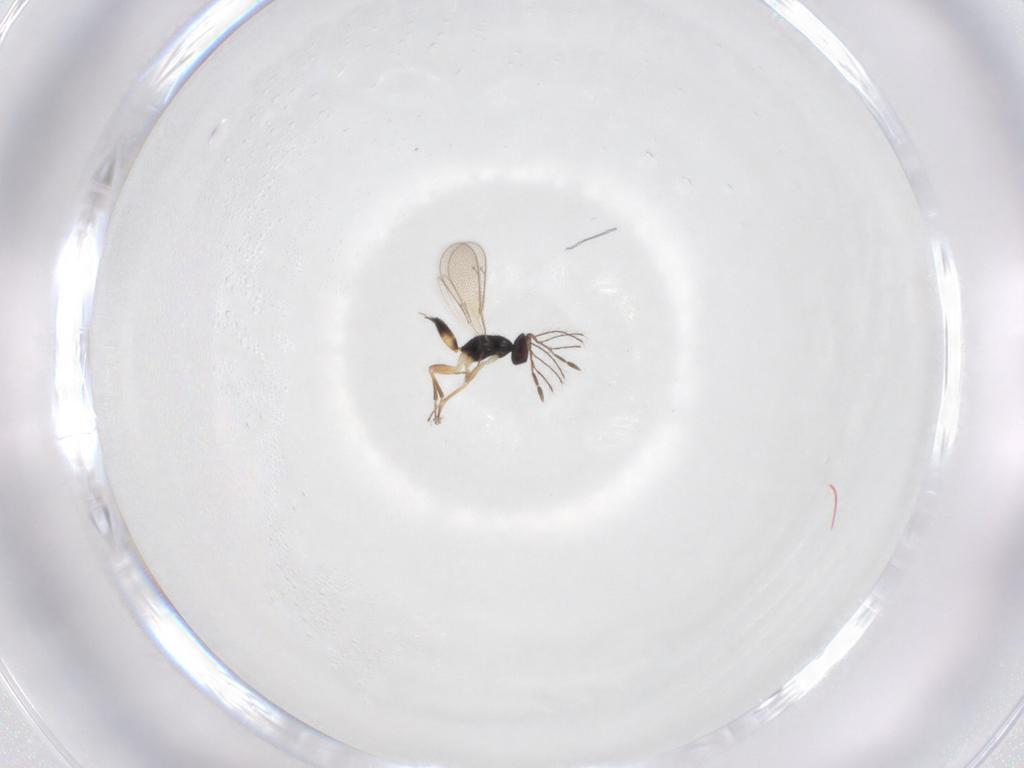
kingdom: Animalia
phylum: Arthropoda
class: Insecta
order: Hymenoptera
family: Eulophidae
